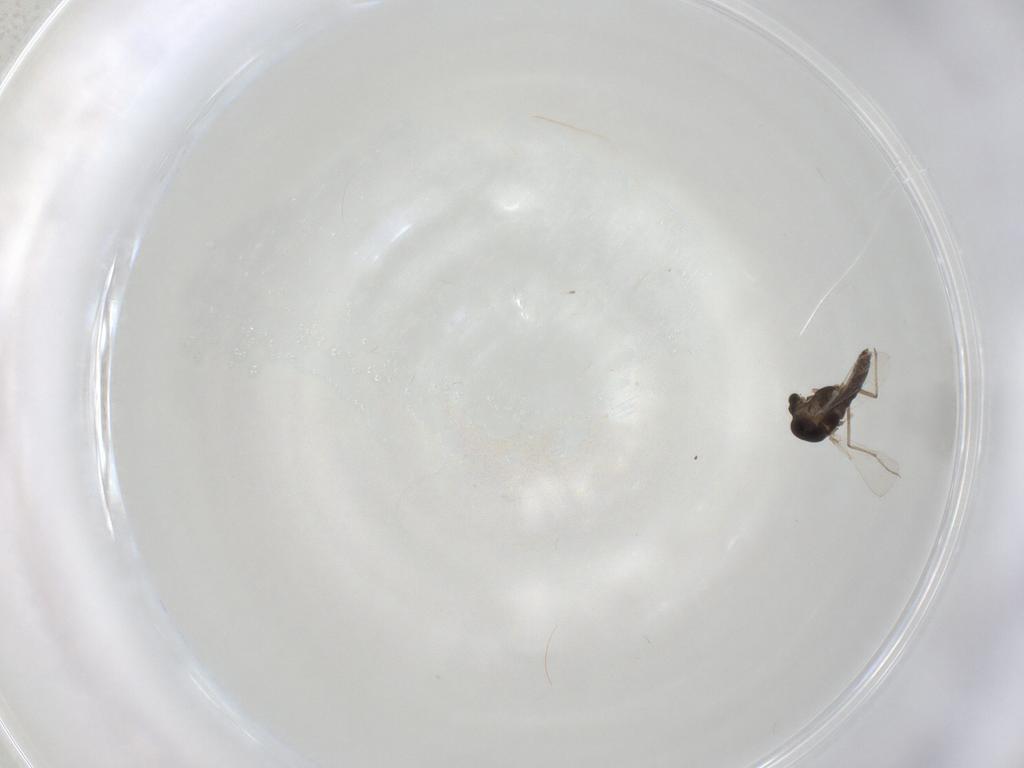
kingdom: Animalia
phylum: Arthropoda
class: Insecta
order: Diptera
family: Chironomidae
